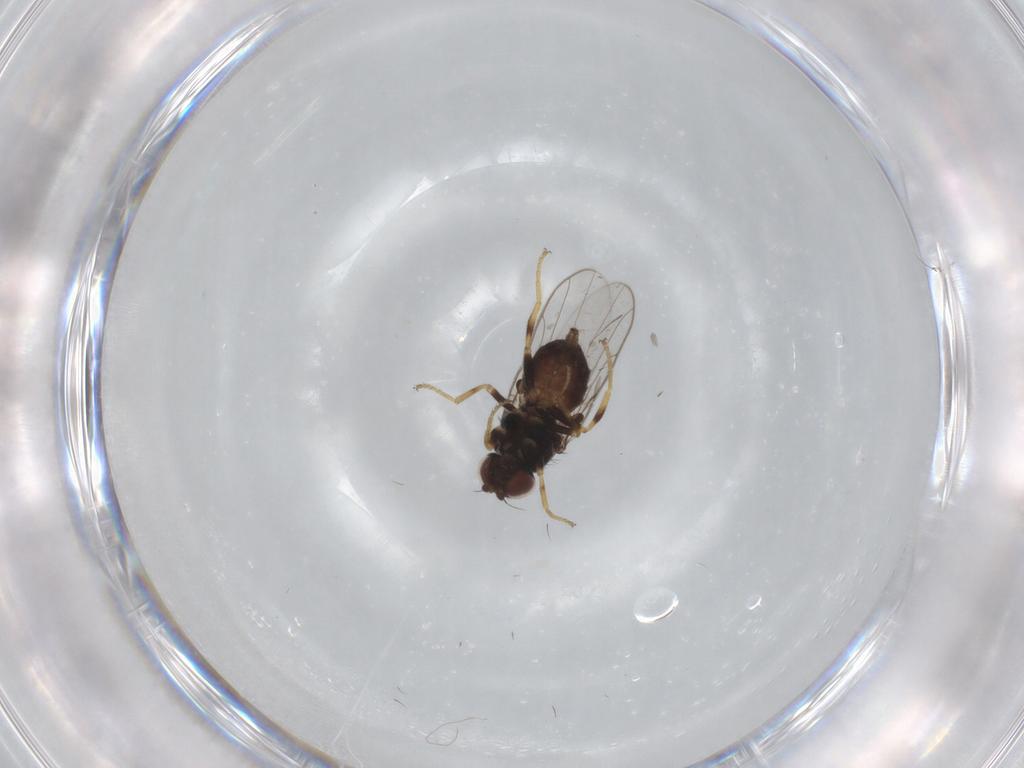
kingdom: Animalia
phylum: Arthropoda
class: Insecta
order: Diptera
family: Chloropidae
